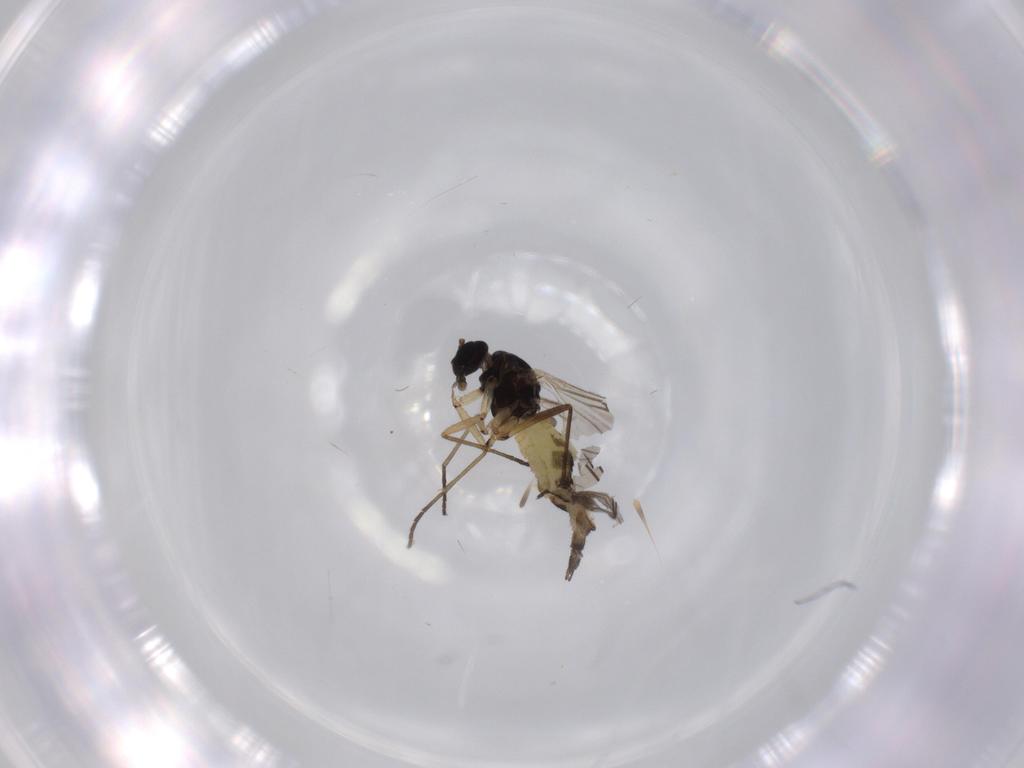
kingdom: Animalia
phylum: Arthropoda
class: Insecta
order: Diptera
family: Sciaridae
